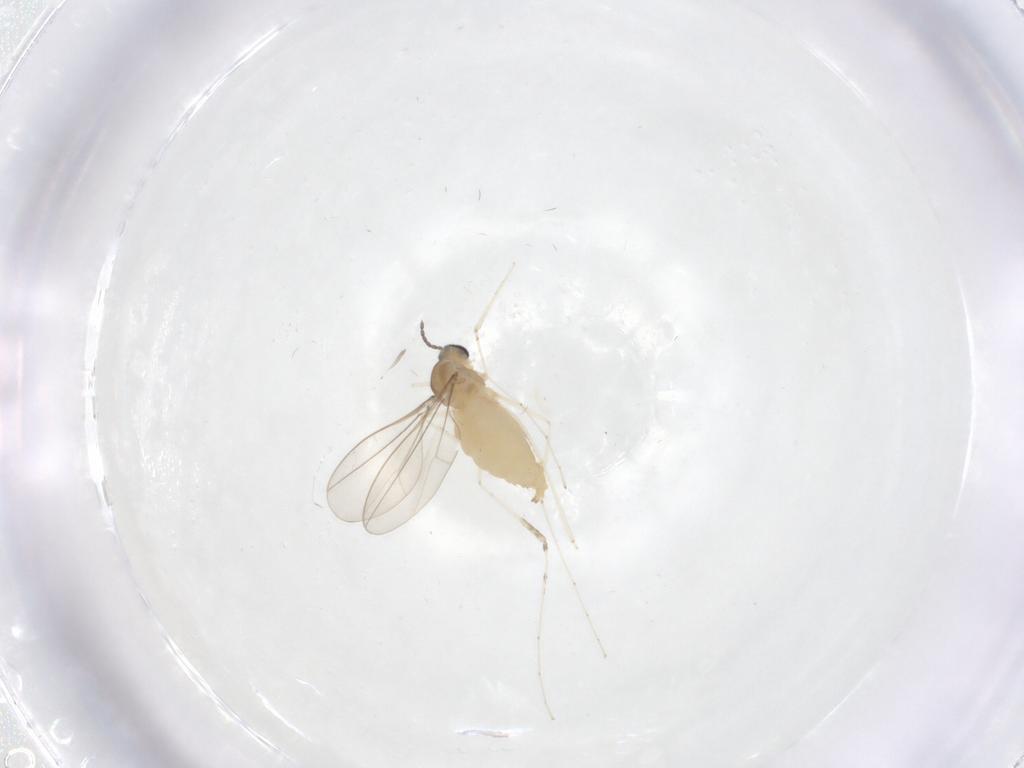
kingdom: Animalia
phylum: Arthropoda
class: Insecta
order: Diptera
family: Cecidomyiidae
